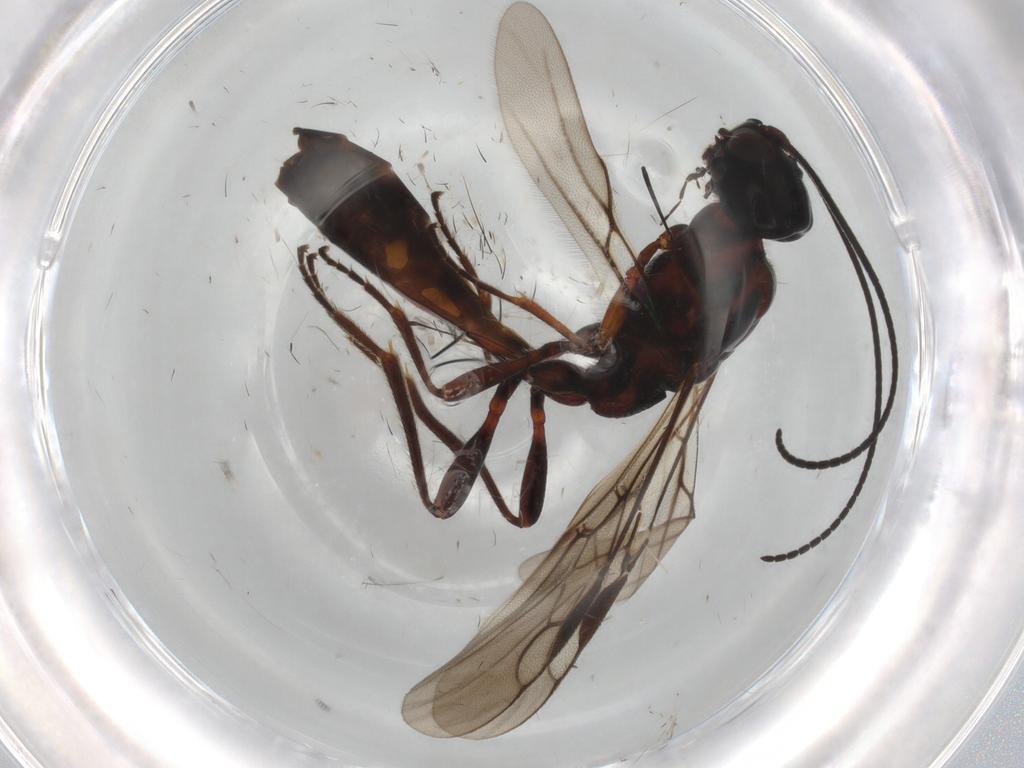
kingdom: Animalia
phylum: Arthropoda
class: Insecta
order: Hymenoptera
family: Braconidae
